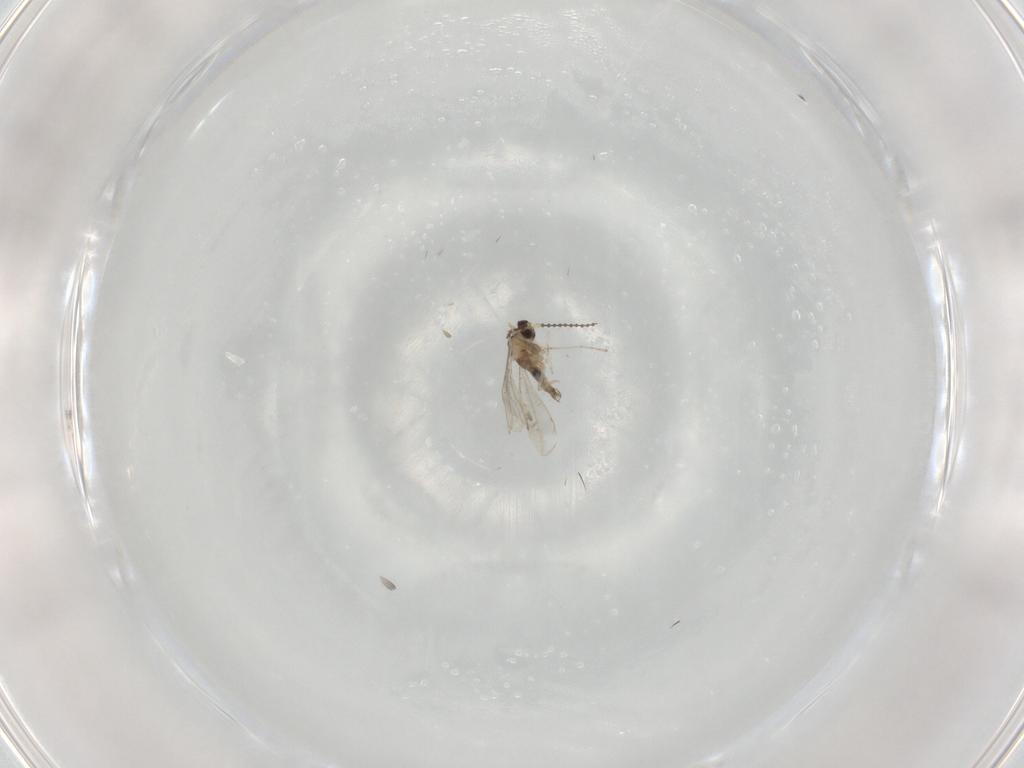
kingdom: Animalia
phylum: Arthropoda
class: Insecta
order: Diptera
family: Cecidomyiidae
